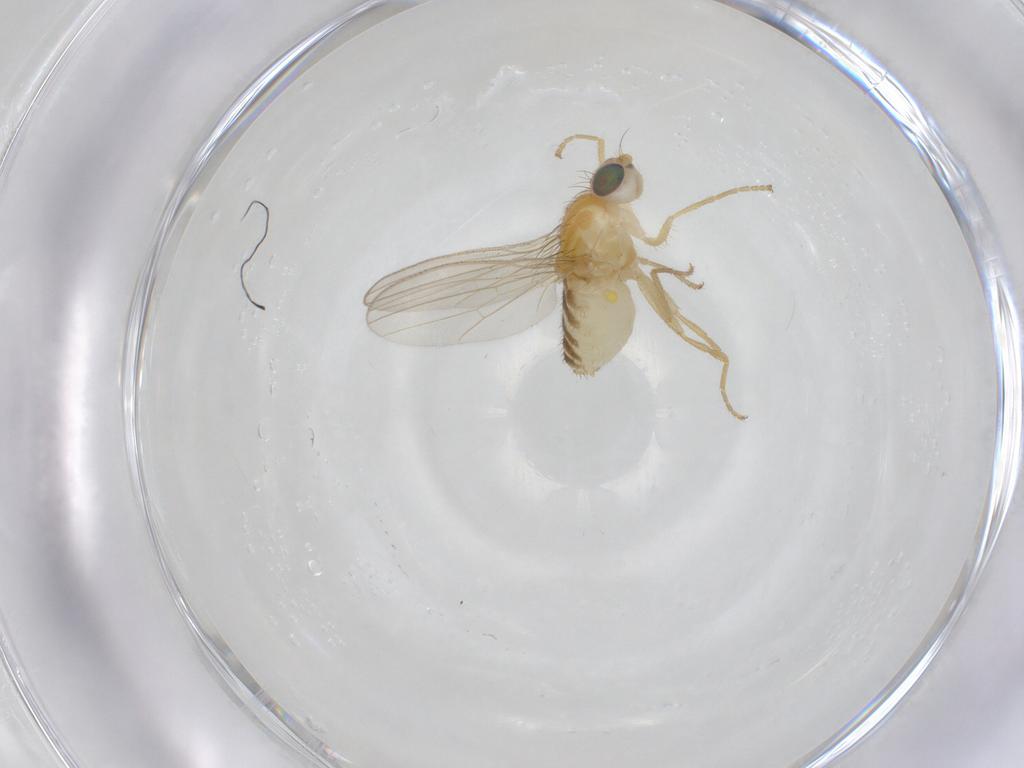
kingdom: Animalia
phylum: Arthropoda
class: Insecta
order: Diptera
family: Chyromyidae
